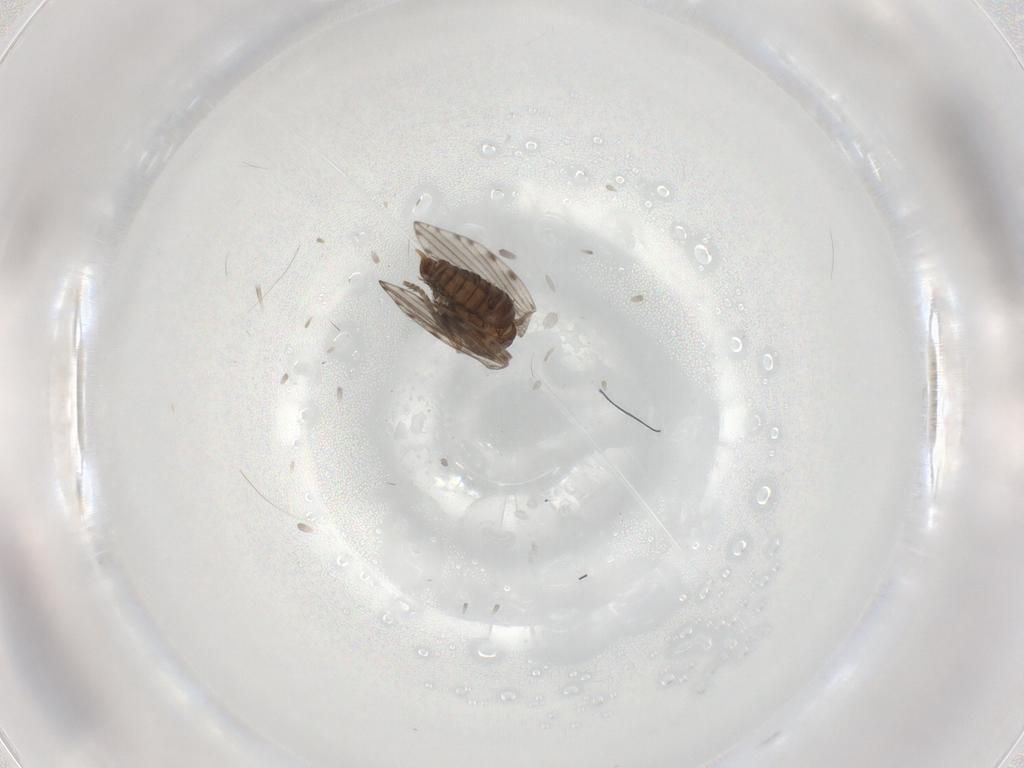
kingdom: Animalia
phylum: Arthropoda
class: Insecta
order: Diptera
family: Psychodidae
